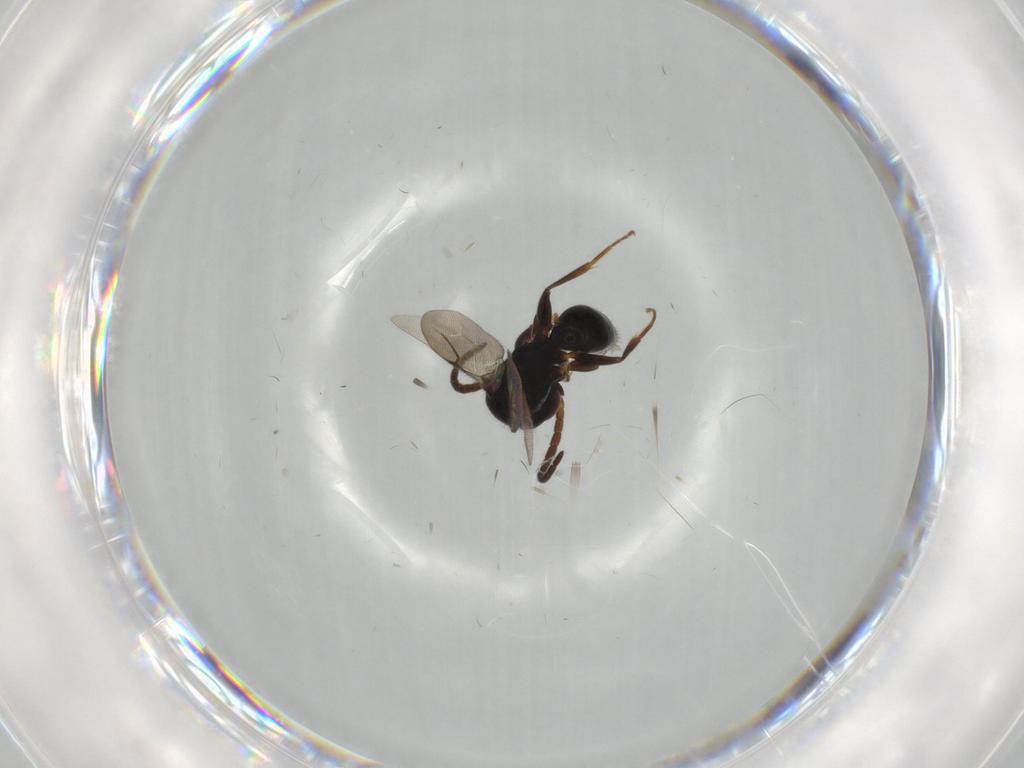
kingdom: Animalia
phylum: Arthropoda
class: Insecta
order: Hymenoptera
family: Bethylidae
